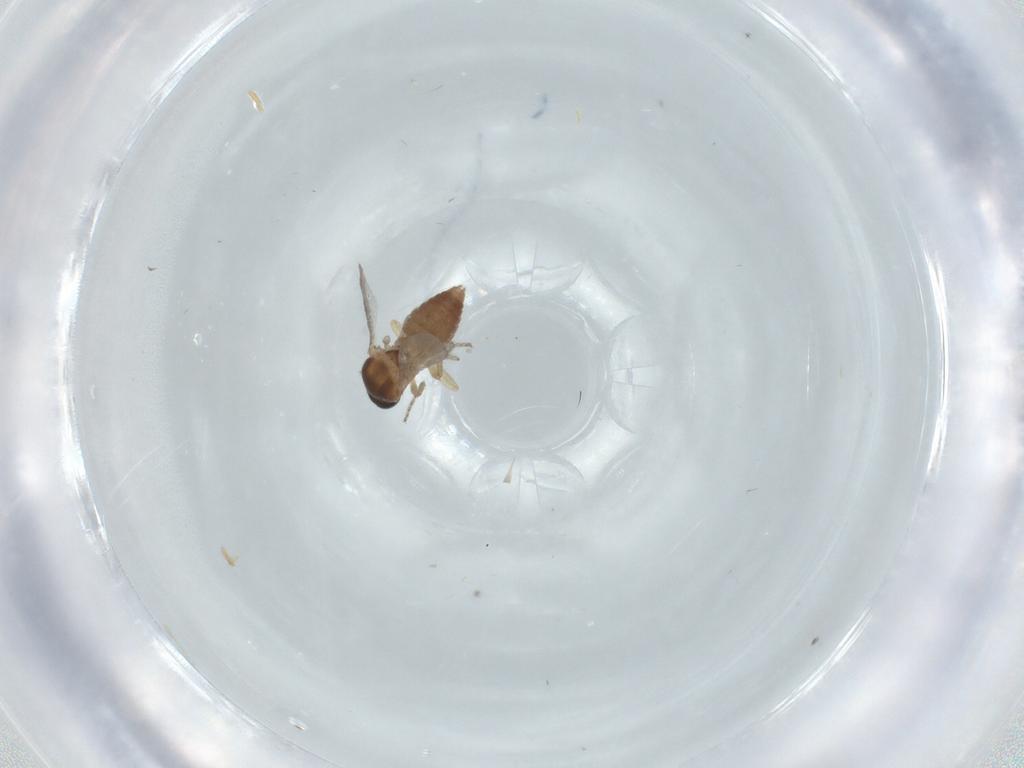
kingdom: Animalia
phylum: Arthropoda
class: Insecta
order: Diptera
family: Ceratopogonidae
